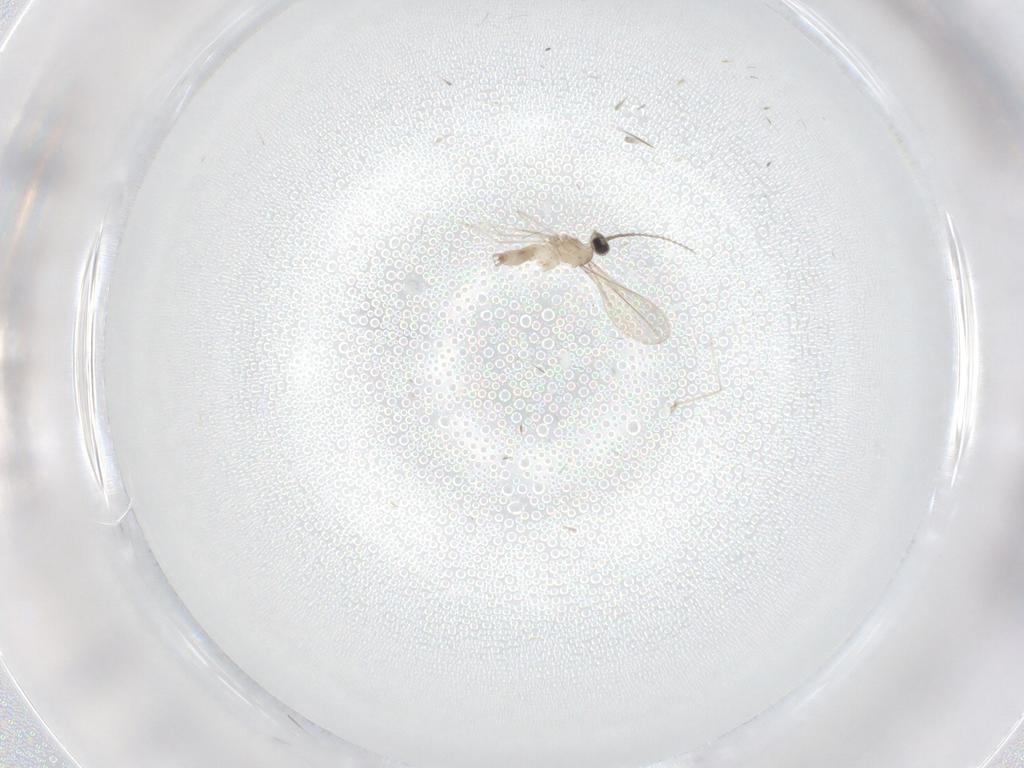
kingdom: Animalia
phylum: Arthropoda
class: Insecta
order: Diptera
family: Cecidomyiidae
